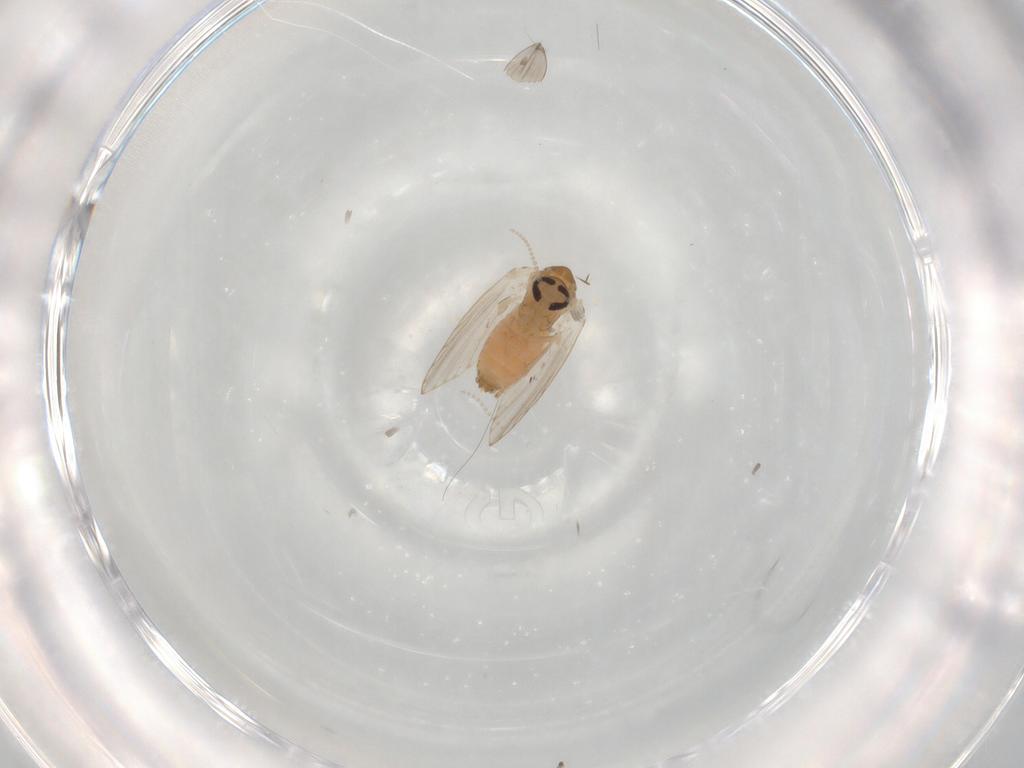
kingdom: Animalia
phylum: Arthropoda
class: Insecta
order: Diptera
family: Psychodidae
